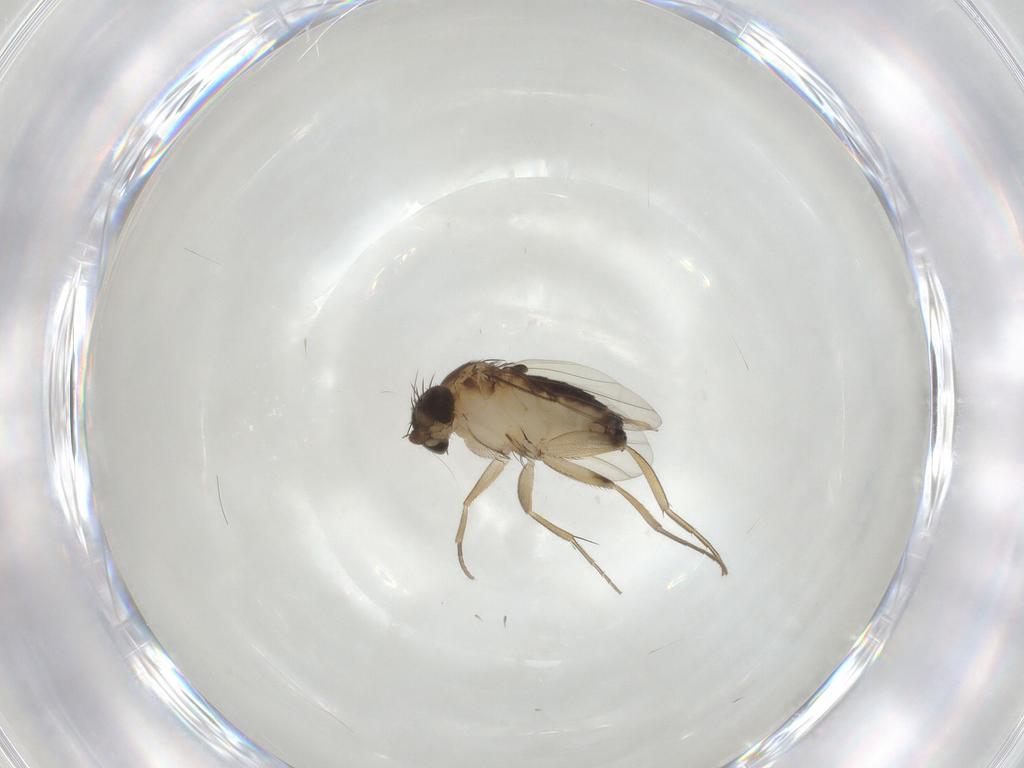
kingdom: Animalia
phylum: Arthropoda
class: Insecta
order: Diptera
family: Phoridae
